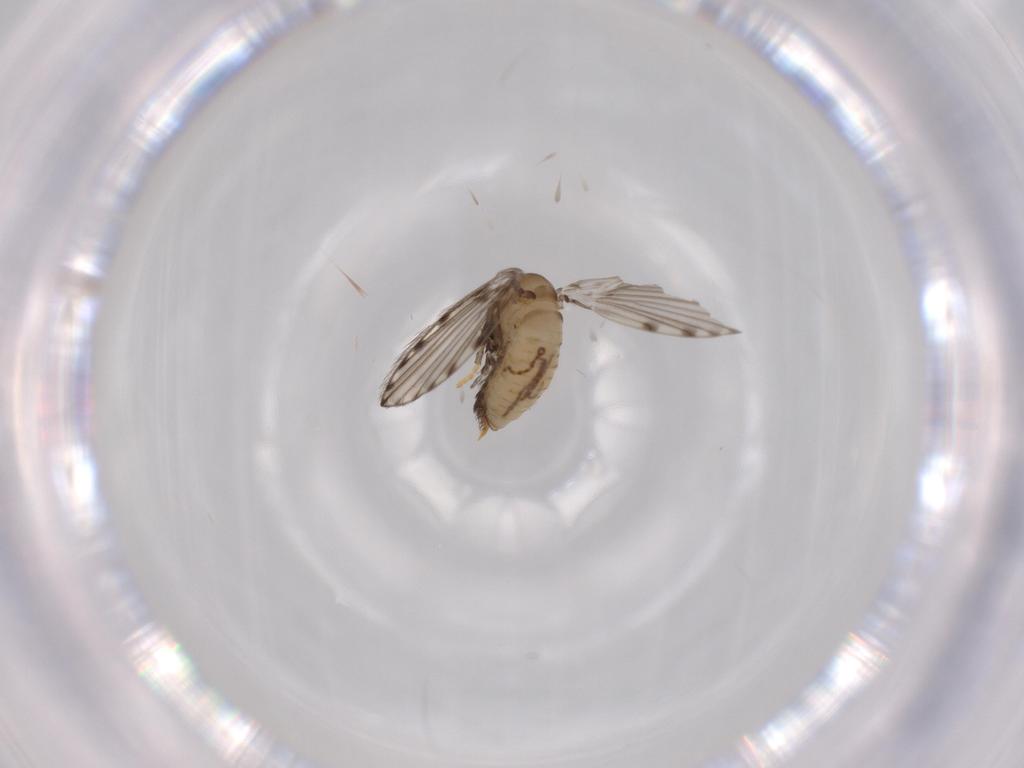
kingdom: Animalia
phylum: Arthropoda
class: Insecta
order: Diptera
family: Psychodidae
